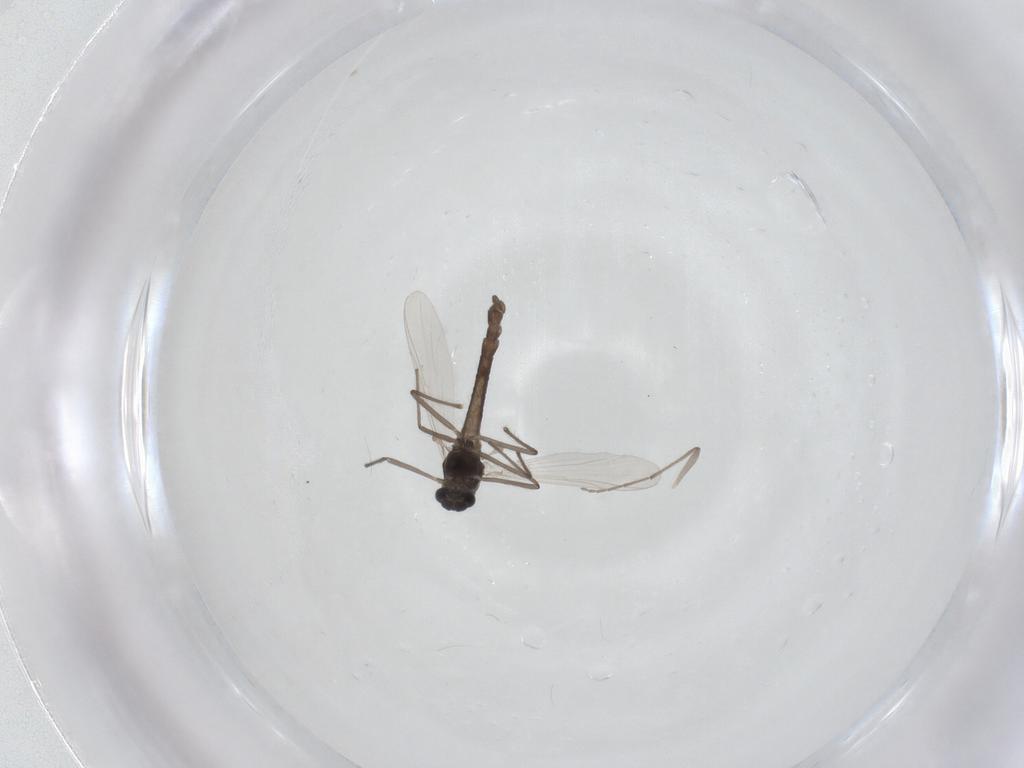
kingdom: Animalia
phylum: Arthropoda
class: Insecta
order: Diptera
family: Chironomidae
